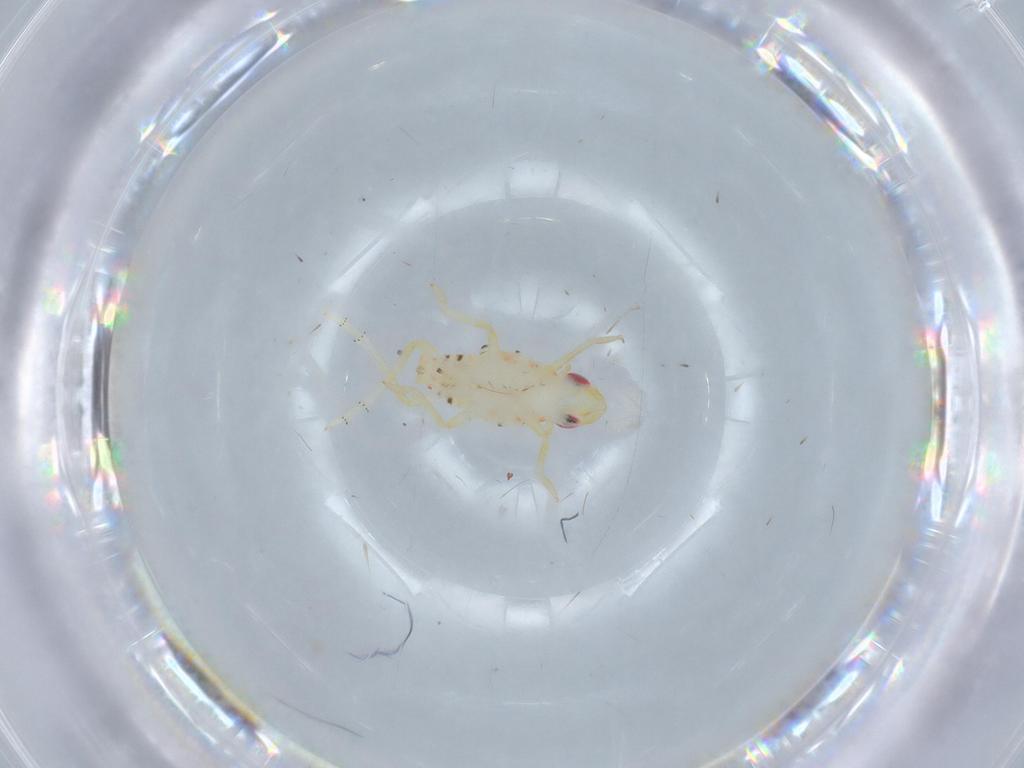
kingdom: Animalia
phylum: Arthropoda
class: Insecta
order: Hemiptera
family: Tropiduchidae
